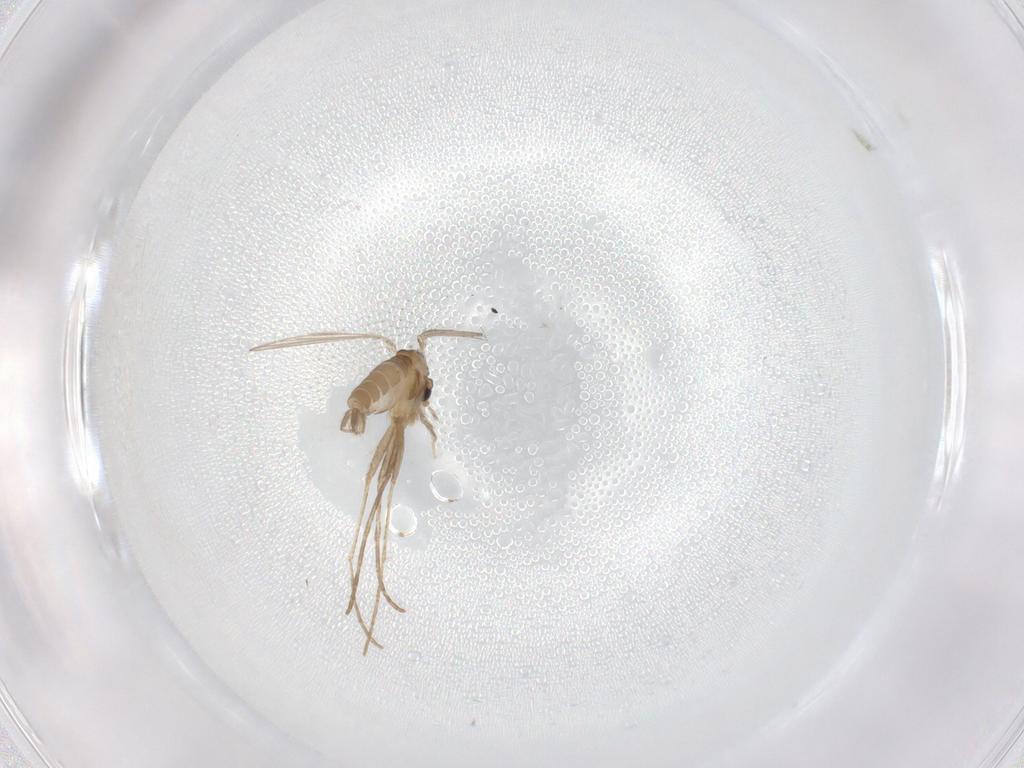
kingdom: Animalia
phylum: Arthropoda
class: Insecta
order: Diptera
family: Psychodidae
